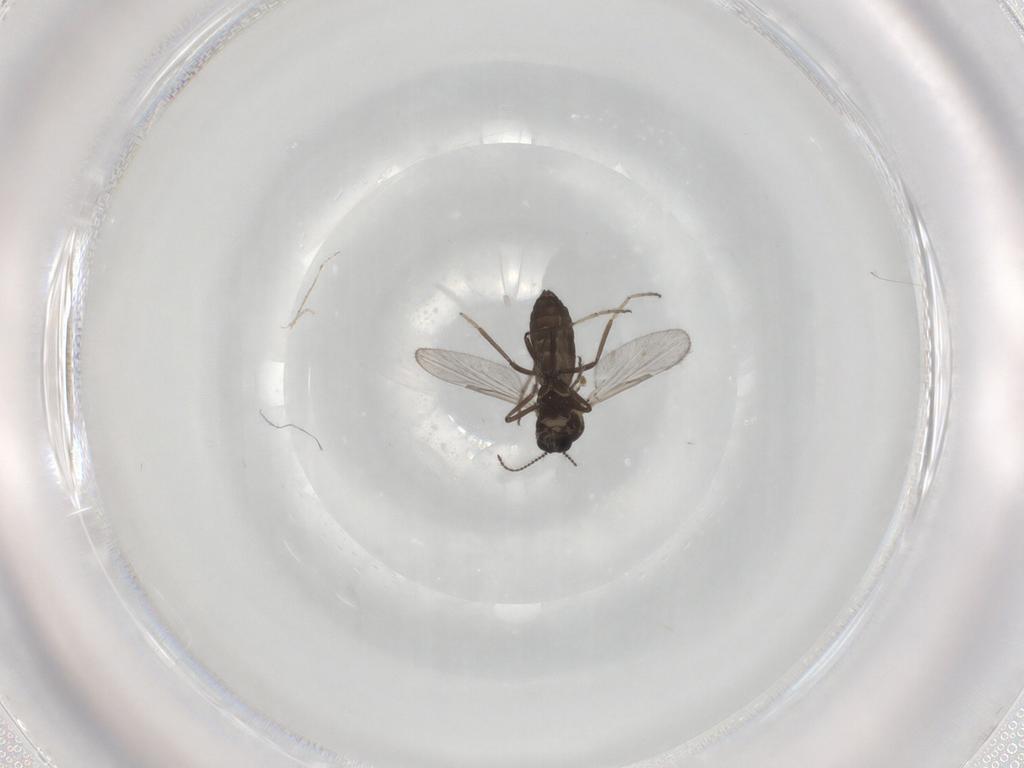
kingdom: Animalia
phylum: Arthropoda
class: Insecta
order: Diptera
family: Ceratopogonidae
